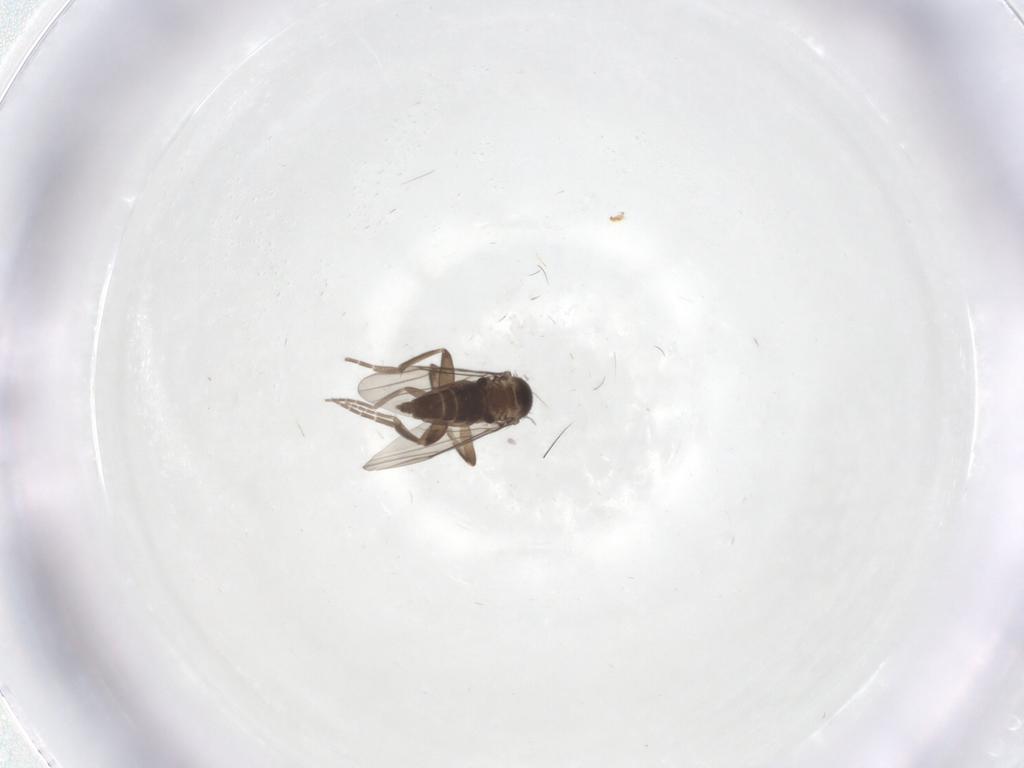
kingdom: Animalia
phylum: Arthropoda
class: Insecta
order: Diptera
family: Phoridae
